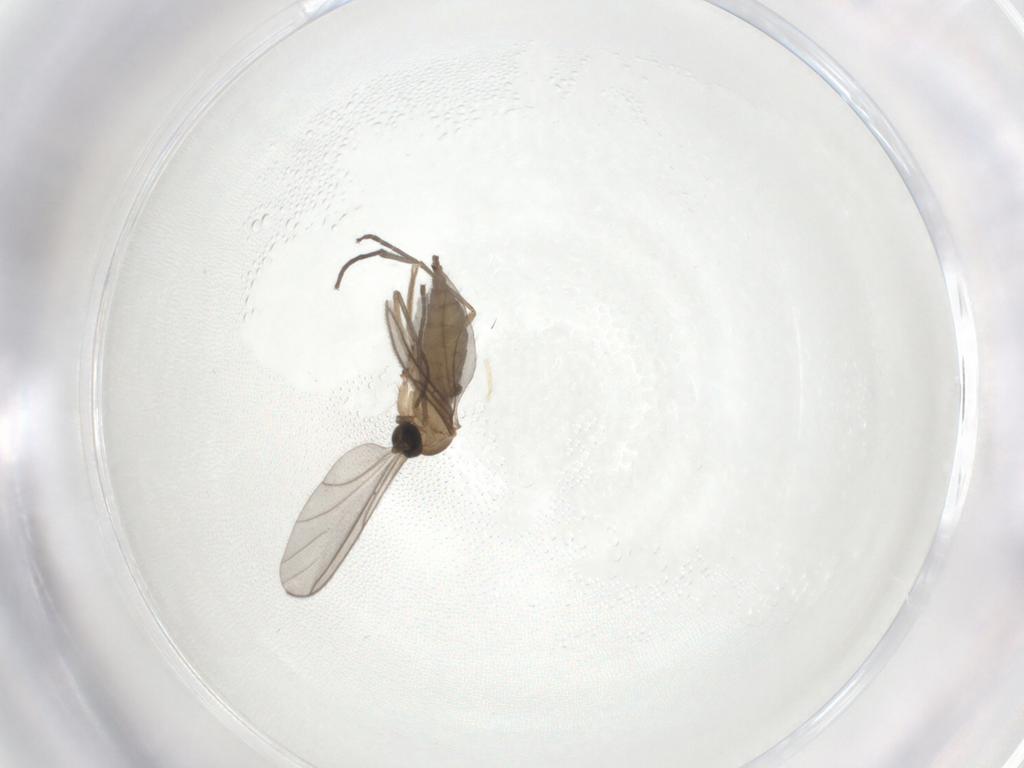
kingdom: Animalia
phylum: Arthropoda
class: Insecta
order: Diptera
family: Sciaridae
